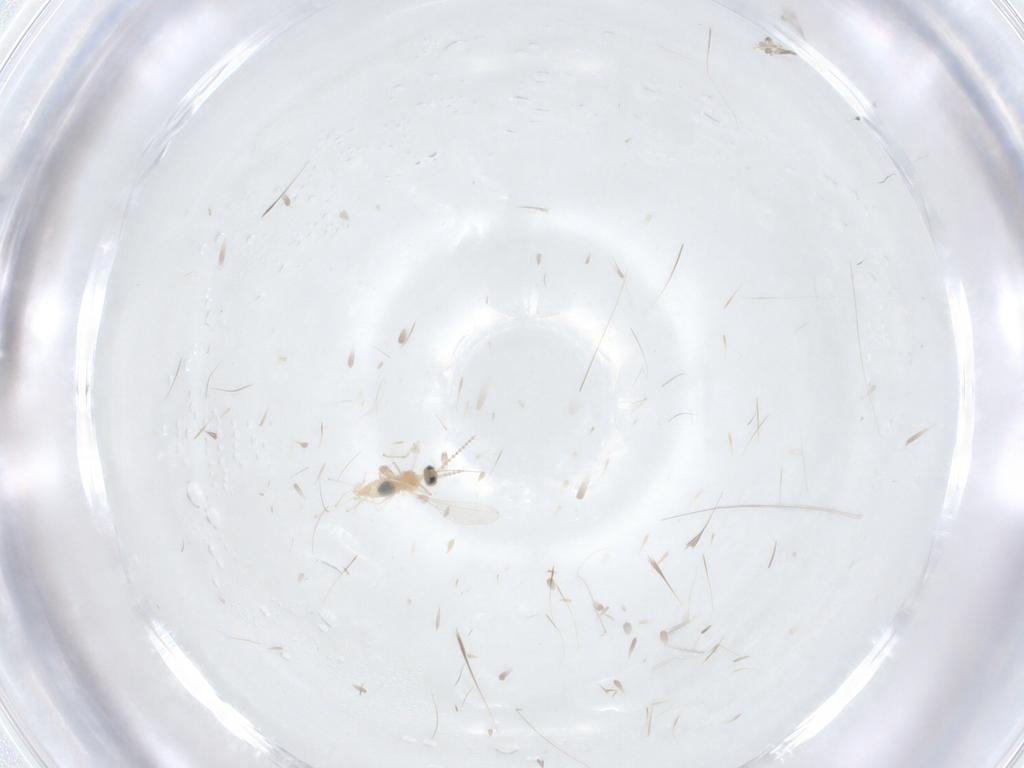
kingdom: Animalia
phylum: Arthropoda
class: Insecta
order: Diptera
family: Cecidomyiidae
